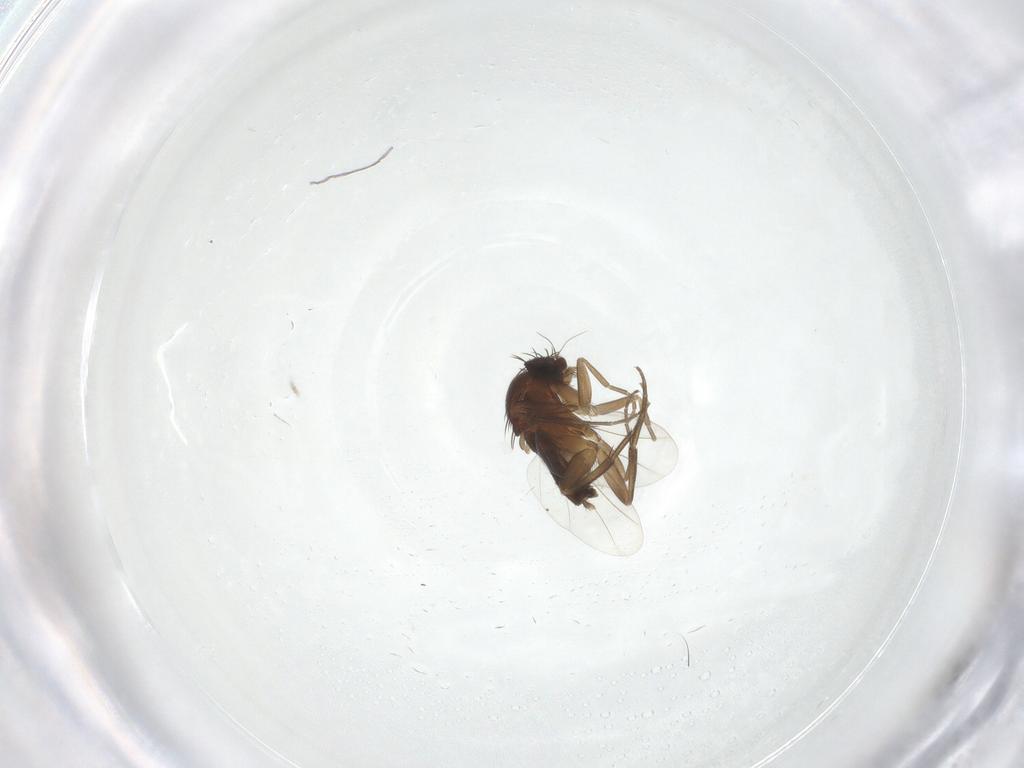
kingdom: Animalia
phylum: Arthropoda
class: Insecta
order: Diptera
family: Phoridae
